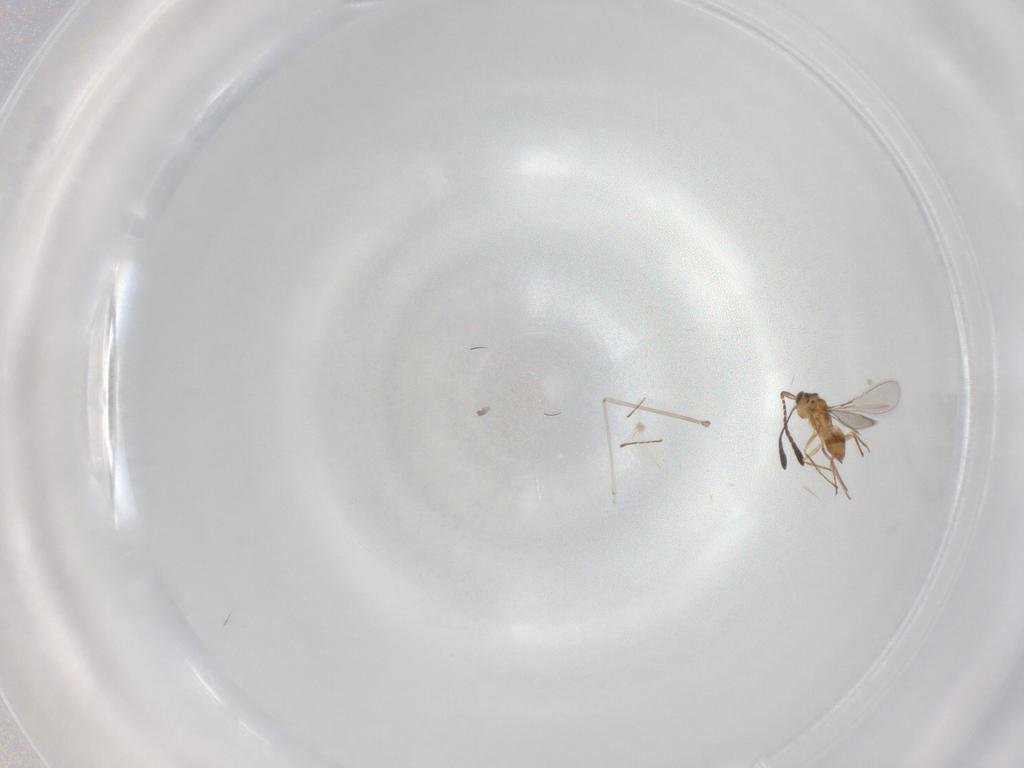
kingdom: Animalia
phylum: Arthropoda
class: Insecta
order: Hymenoptera
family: Mymaridae
